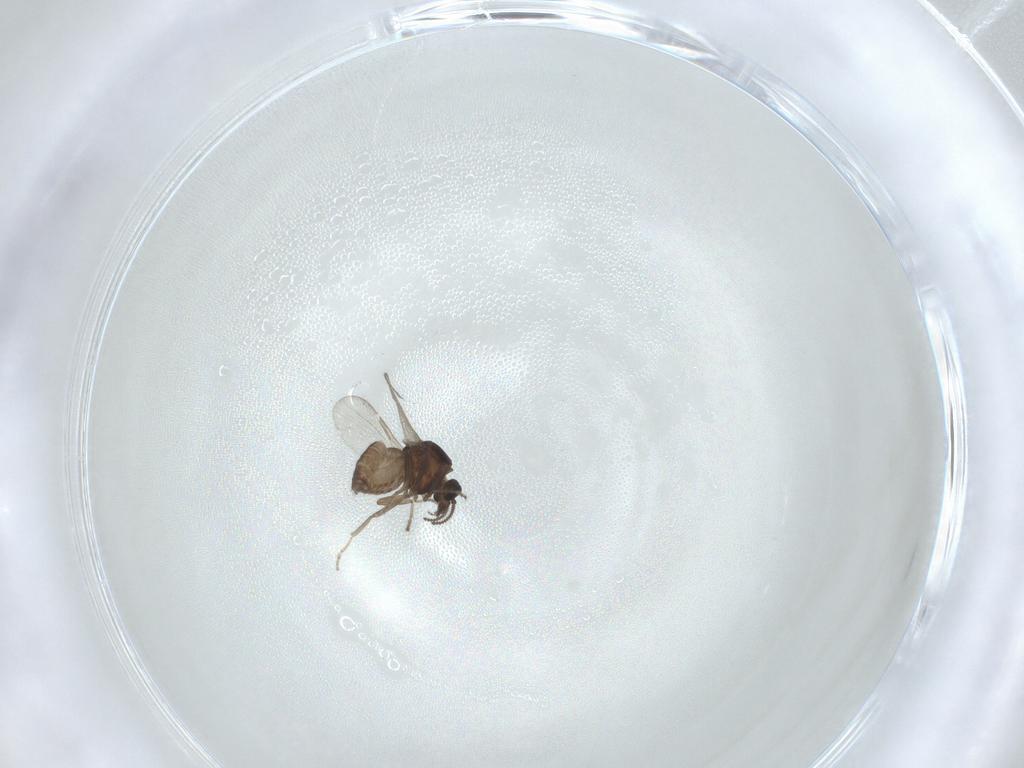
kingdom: Animalia
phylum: Arthropoda
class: Insecta
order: Diptera
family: Ceratopogonidae
